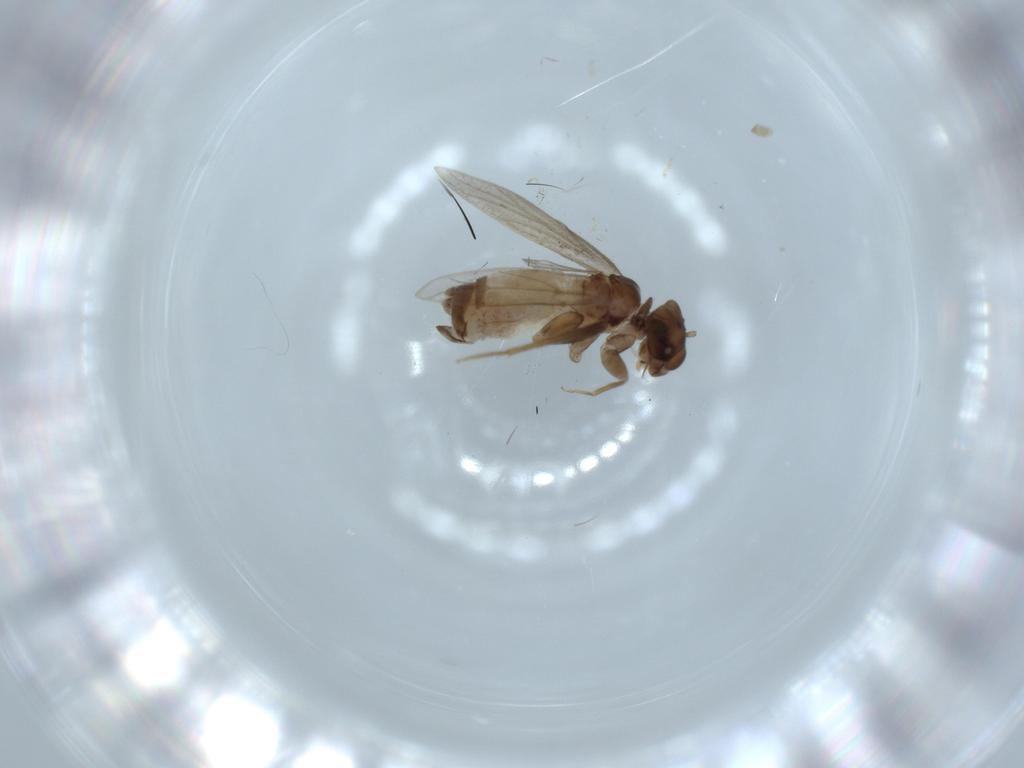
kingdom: Animalia
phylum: Arthropoda
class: Insecta
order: Psocodea
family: Lepidopsocidae
